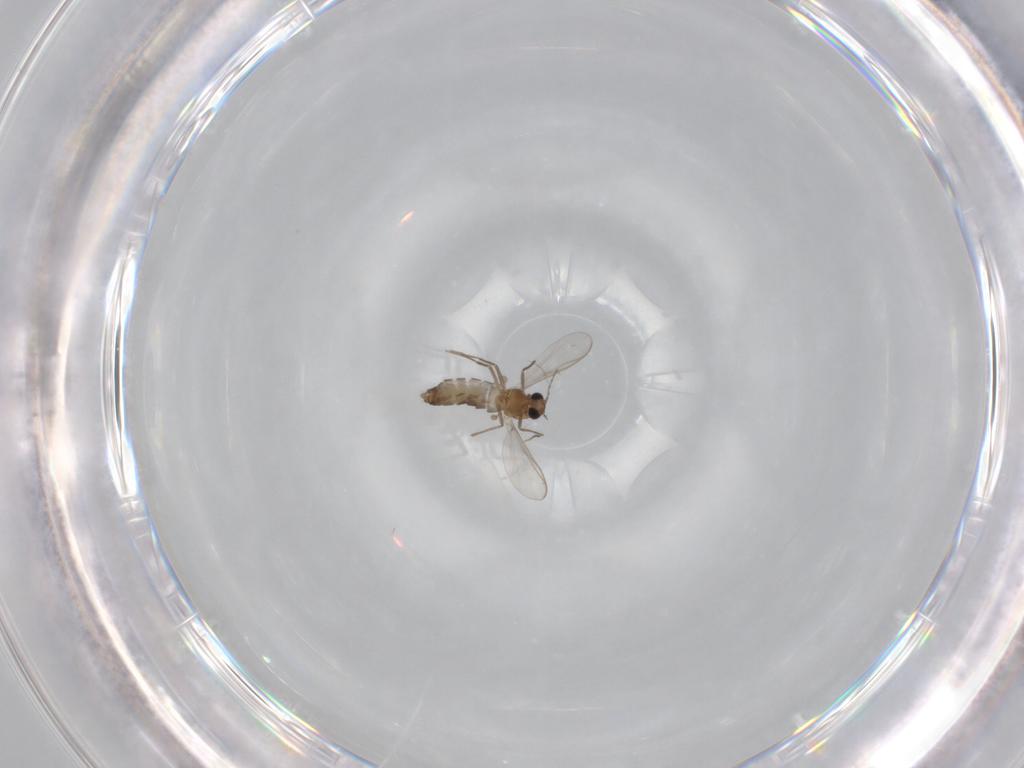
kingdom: Animalia
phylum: Arthropoda
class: Insecta
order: Diptera
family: Chironomidae
